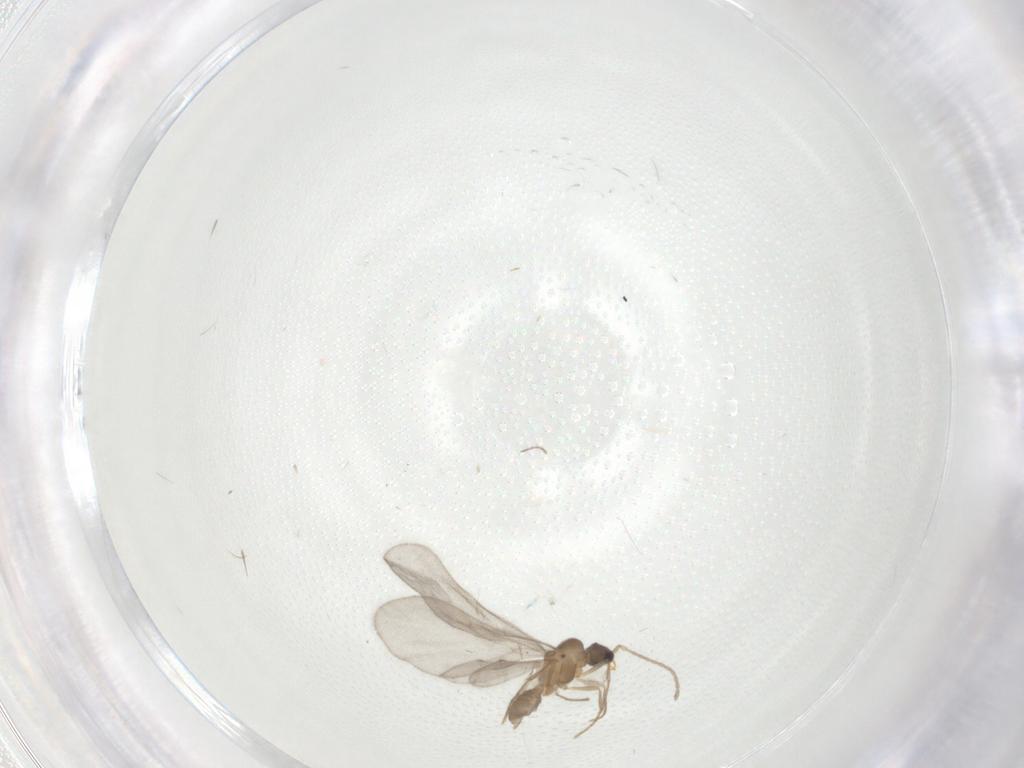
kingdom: Animalia
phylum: Arthropoda
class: Insecta
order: Hymenoptera
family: Formicidae
